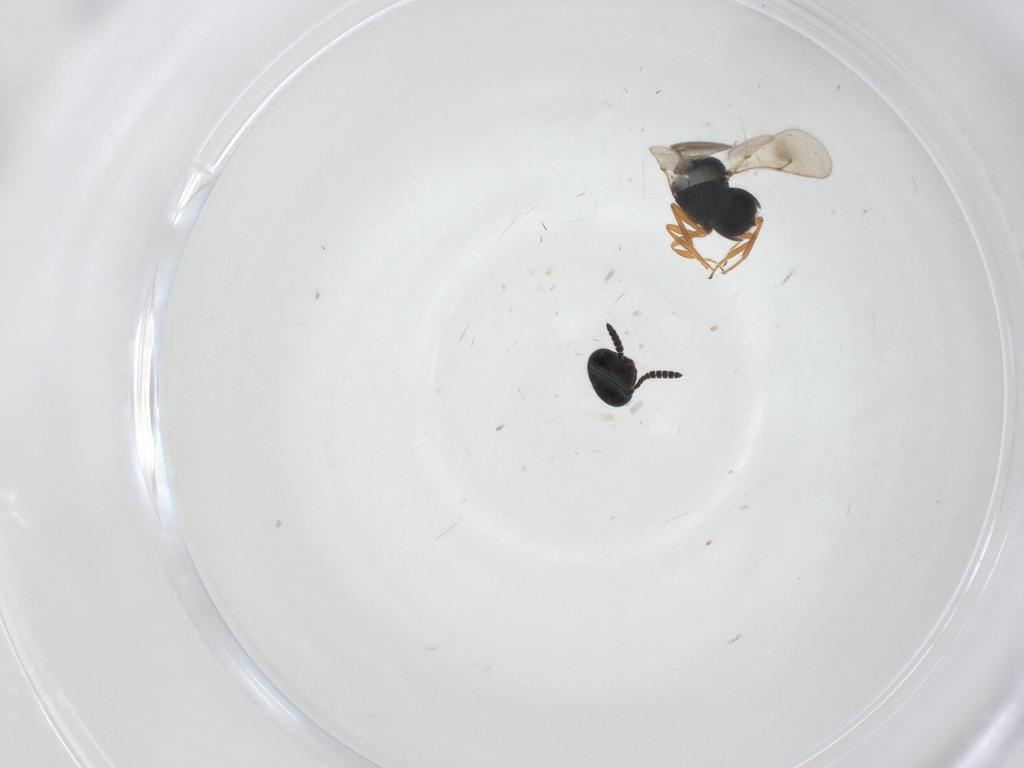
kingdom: Animalia
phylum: Arthropoda
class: Insecta
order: Hymenoptera
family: Scelionidae
